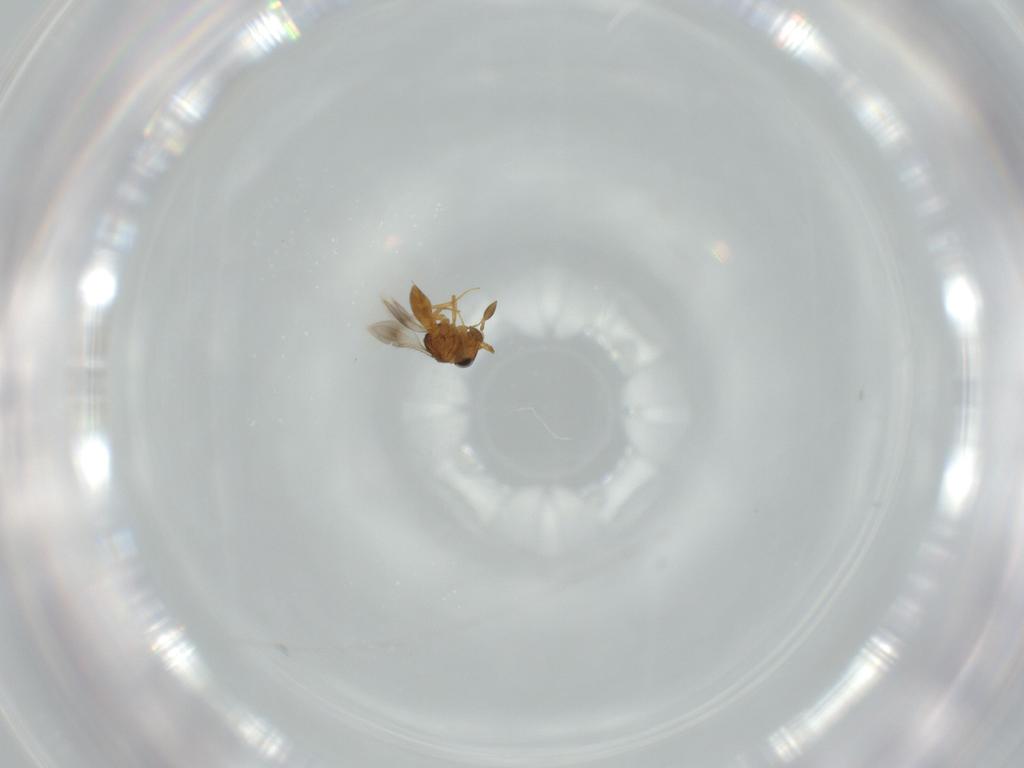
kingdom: Animalia
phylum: Arthropoda
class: Insecta
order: Hymenoptera
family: Scelionidae
